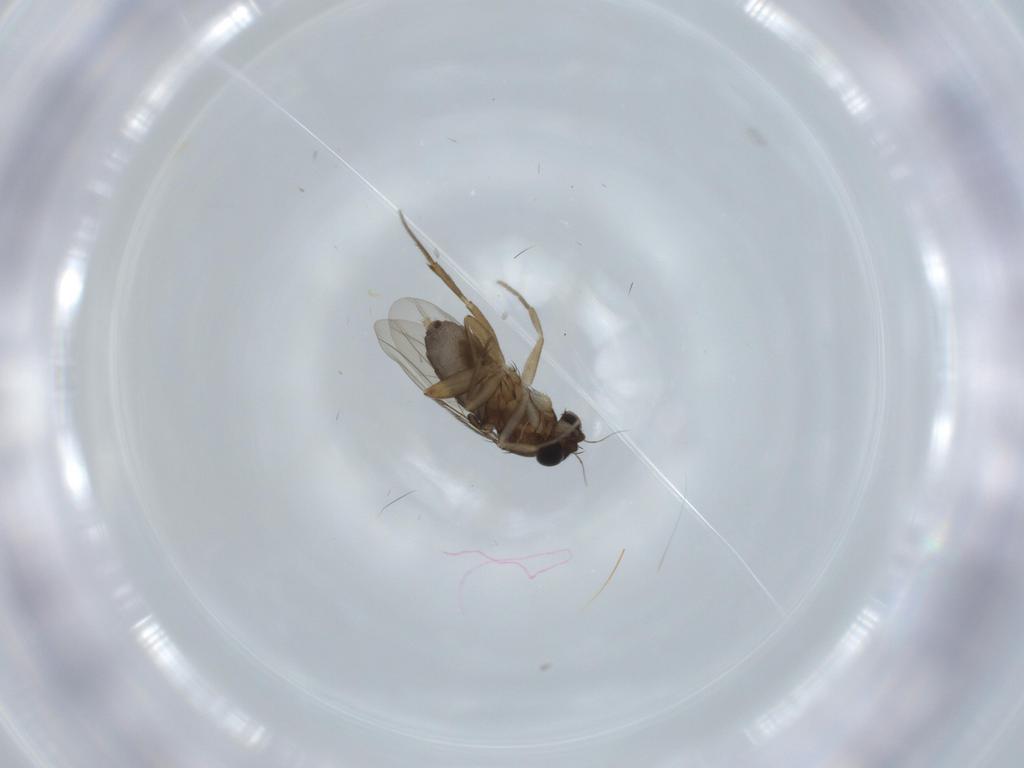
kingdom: Animalia
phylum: Arthropoda
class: Insecta
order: Diptera
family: Phoridae
